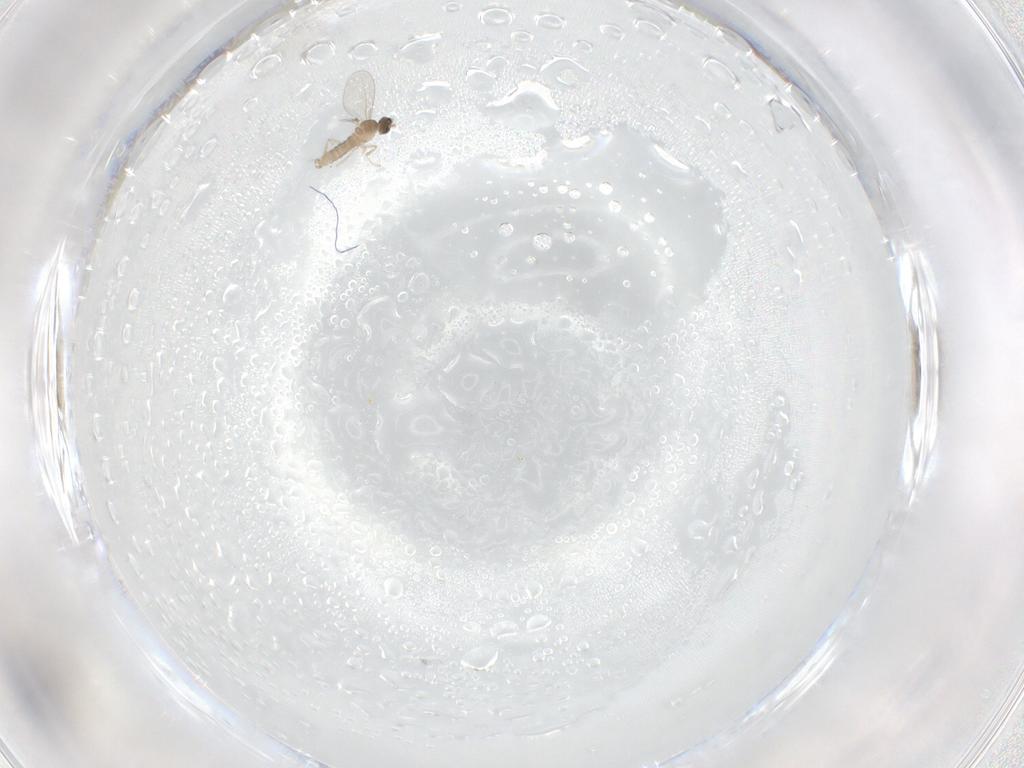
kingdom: Animalia
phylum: Arthropoda
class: Insecta
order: Diptera
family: Cecidomyiidae
